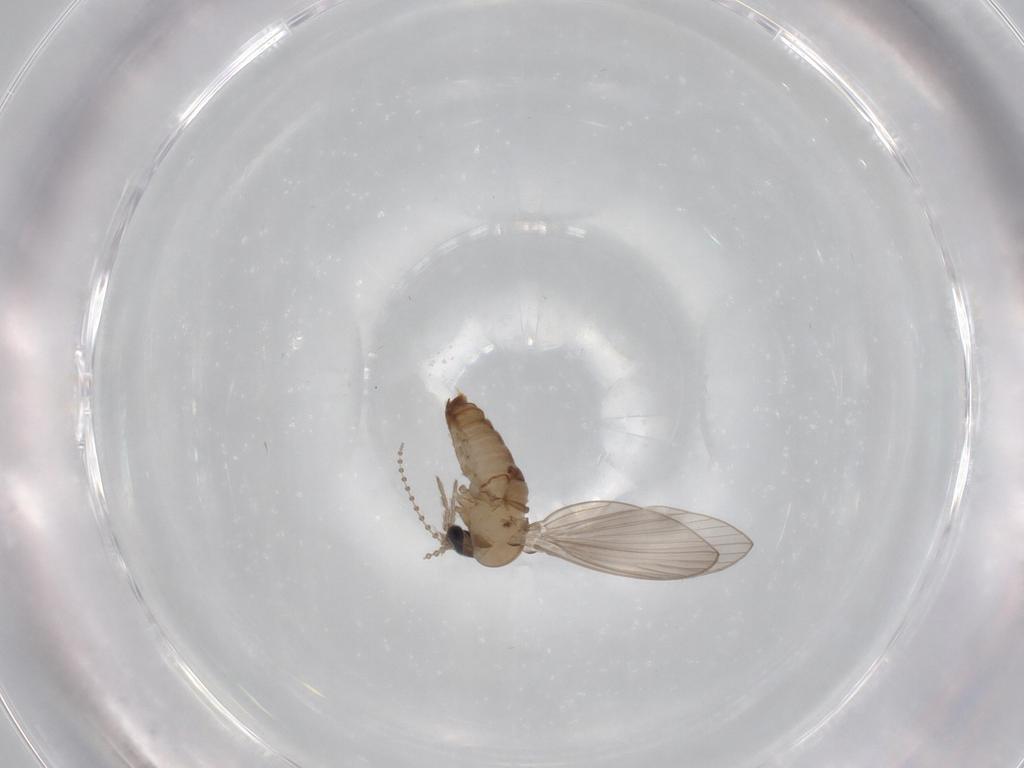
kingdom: Animalia
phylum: Arthropoda
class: Insecta
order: Diptera
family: Psychodidae
